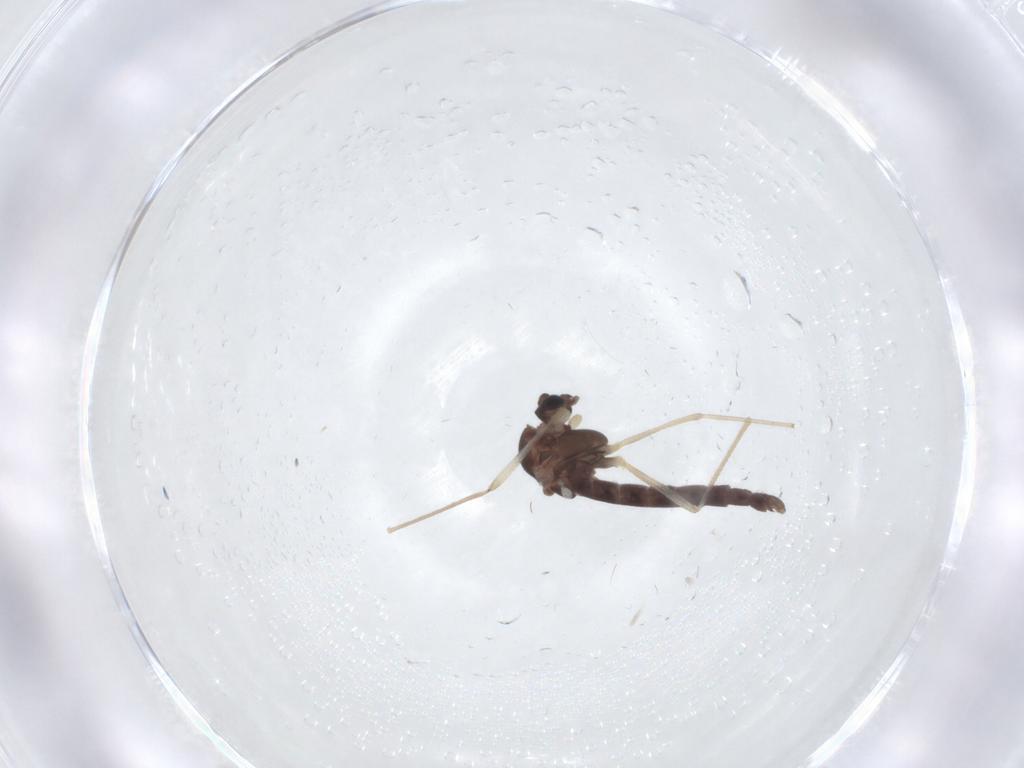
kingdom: Animalia
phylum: Arthropoda
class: Insecta
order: Diptera
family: Chironomidae
